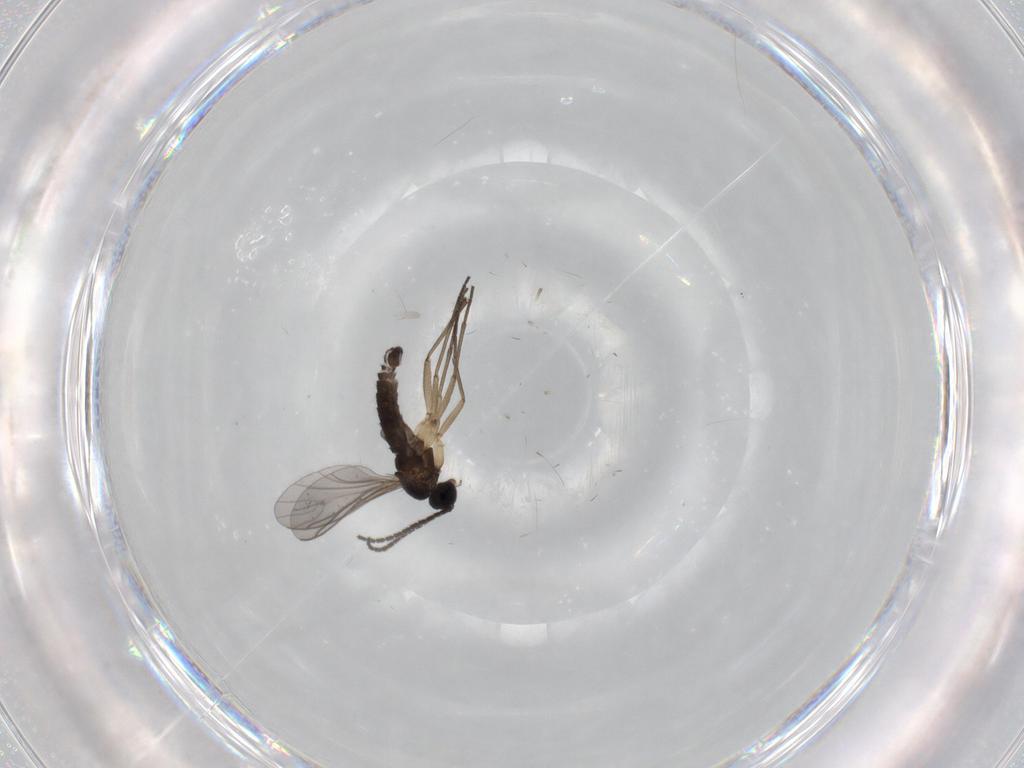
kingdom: Animalia
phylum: Arthropoda
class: Insecta
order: Diptera
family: Sciaridae
